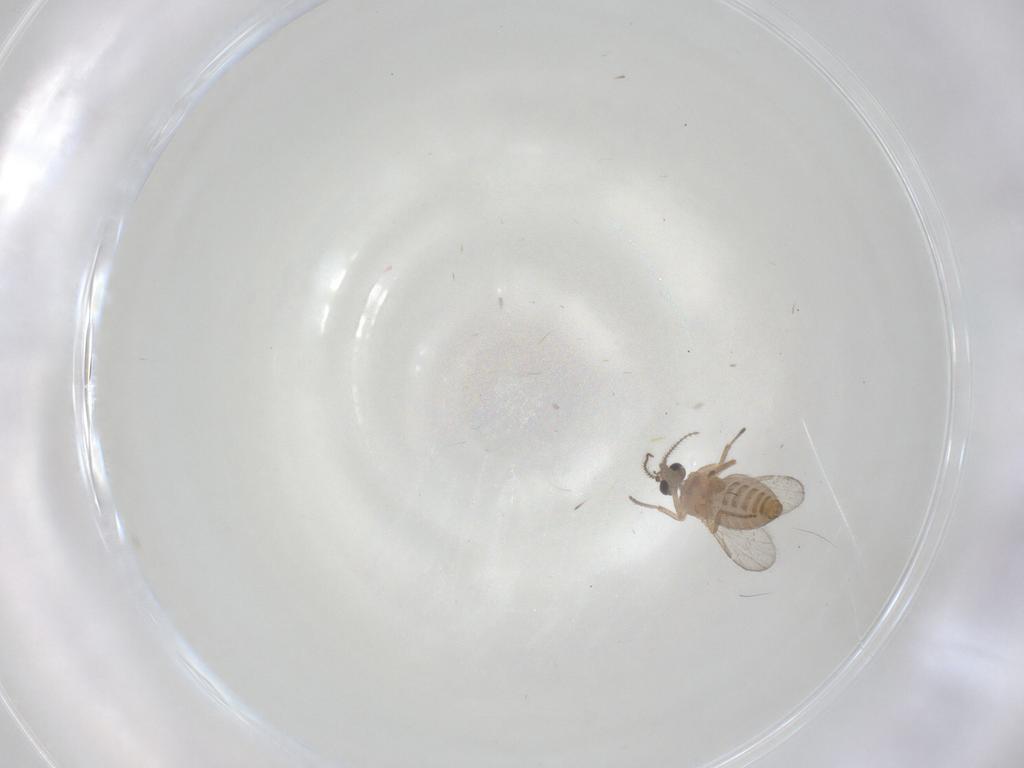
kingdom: Animalia
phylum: Arthropoda
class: Insecta
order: Diptera
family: Ceratopogonidae
